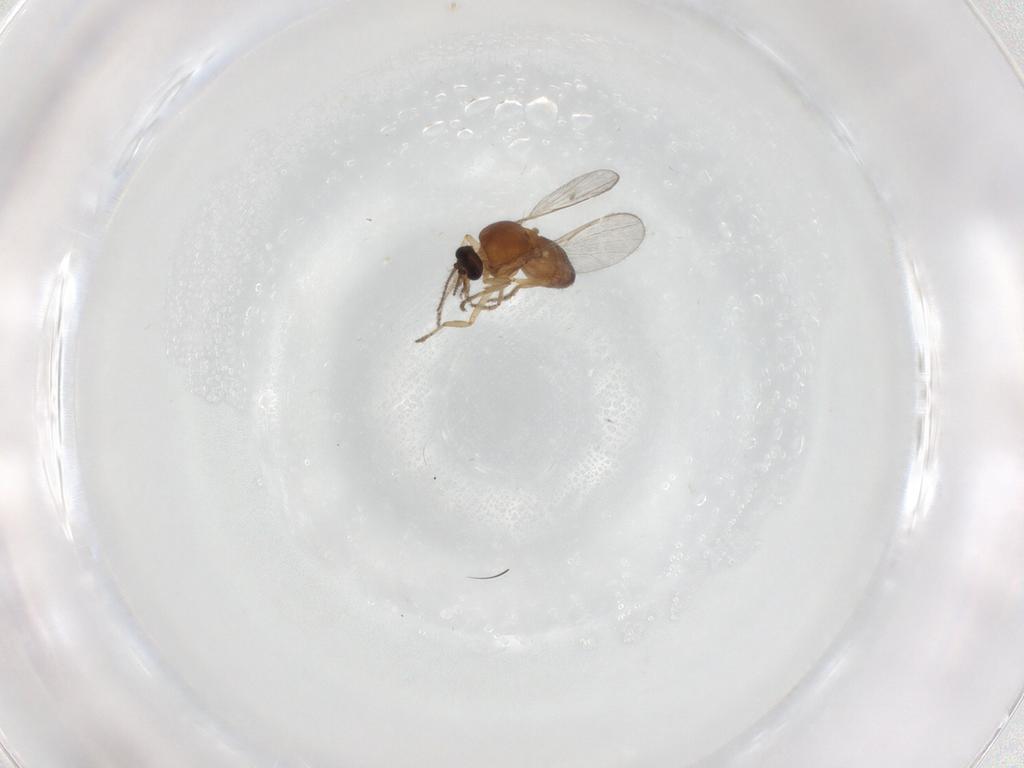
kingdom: Animalia
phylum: Arthropoda
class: Insecta
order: Diptera
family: Ceratopogonidae
